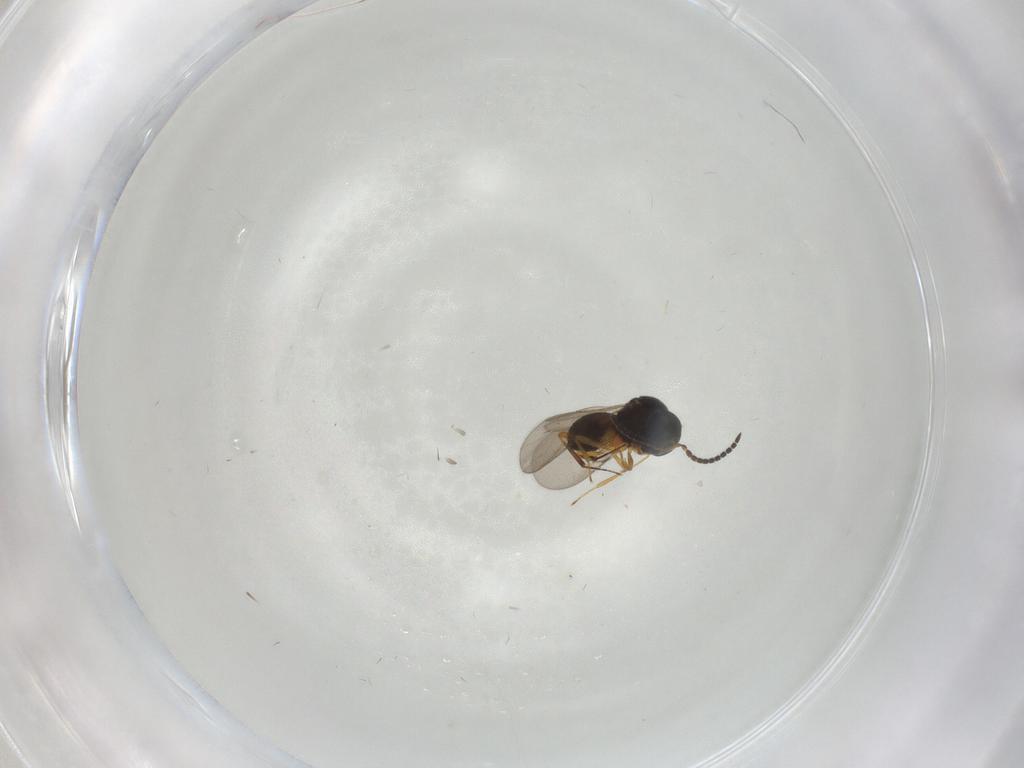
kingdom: Animalia
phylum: Arthropoda
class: Insecta
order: Hymenoptera
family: Scelionidae
